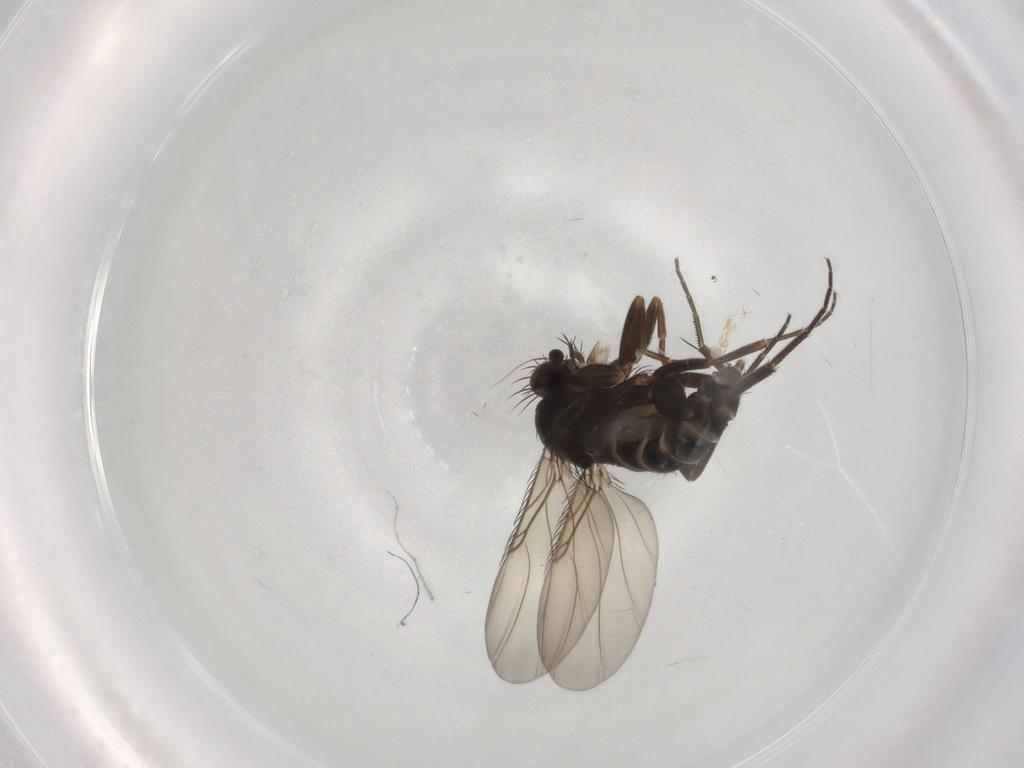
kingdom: Animalia
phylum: Arthropoda
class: Insecta
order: Diptera
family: Phoridae
